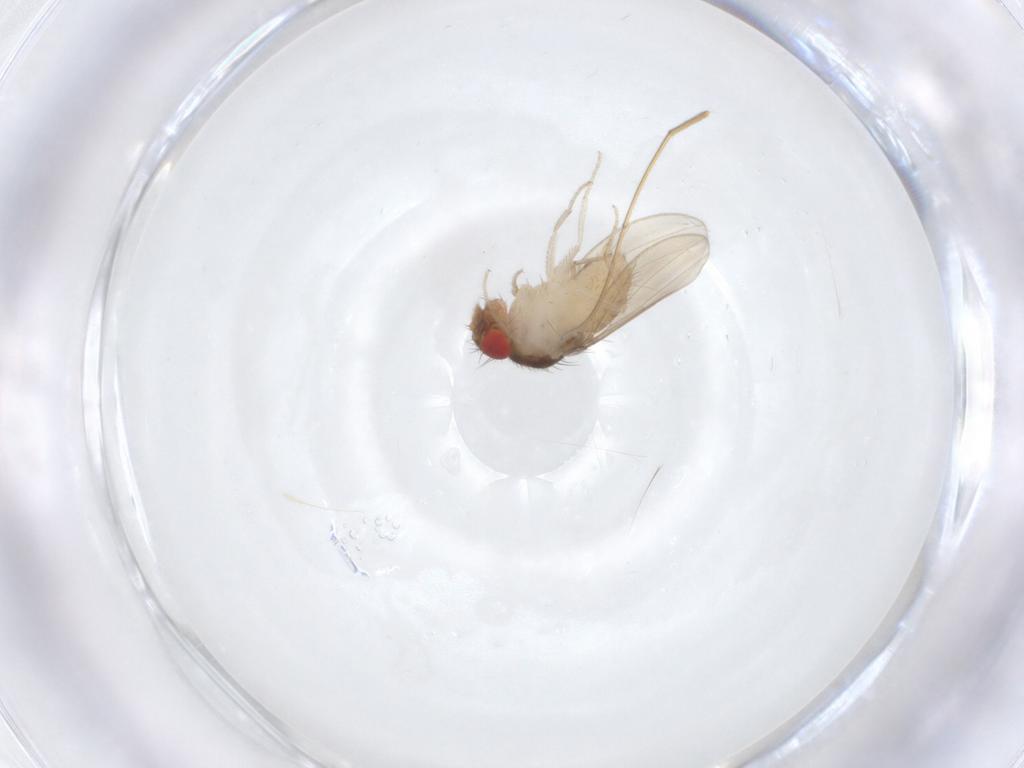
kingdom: Animalia
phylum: Arthropoda
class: Insecta
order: Diptera
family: Drosophilidae
